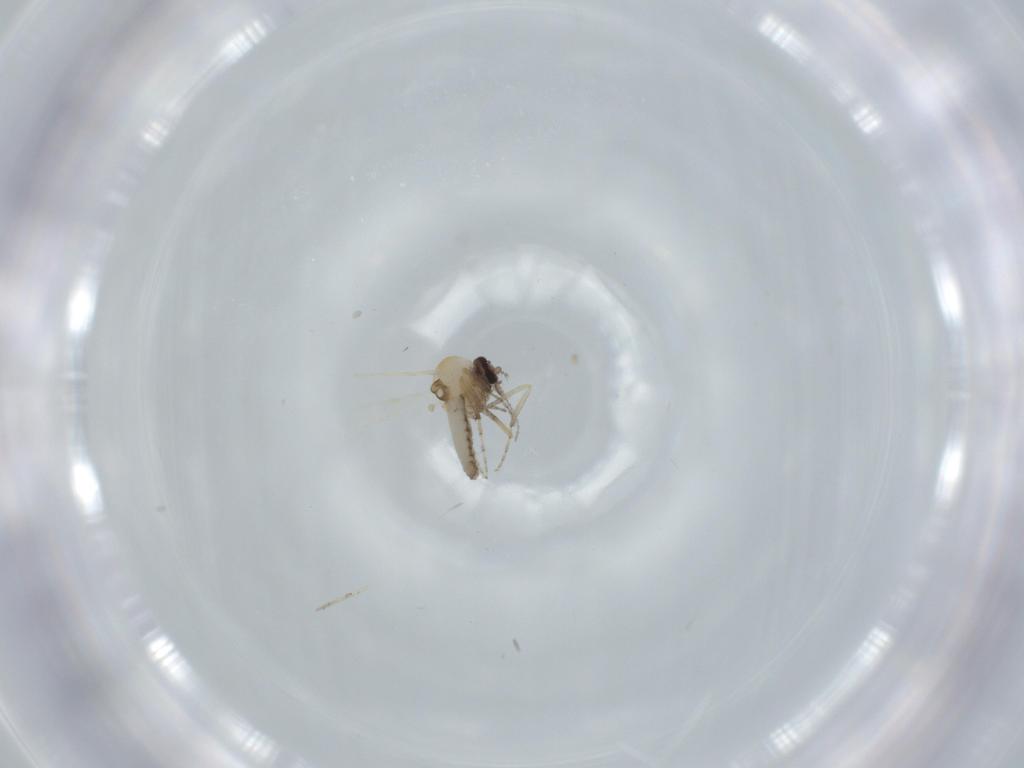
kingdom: Animalia
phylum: Arthropoda
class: Insecta
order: Diptera
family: Ceratopogonidae
